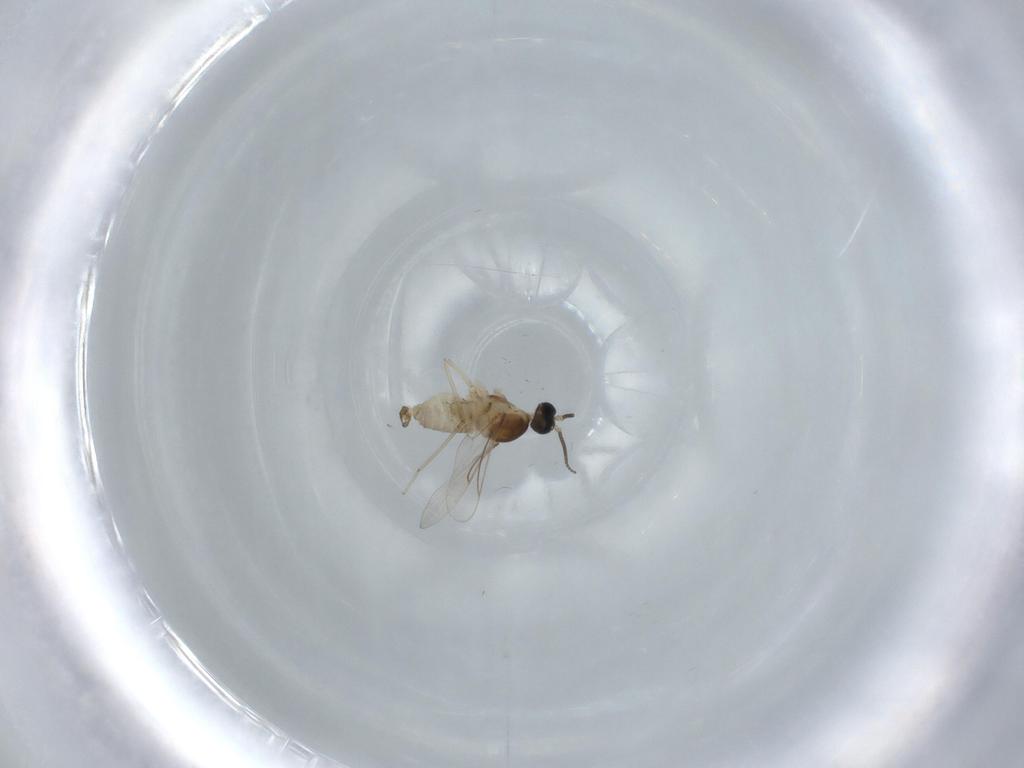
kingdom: Animalia
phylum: Arthropoda
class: Insecta
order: Diptera
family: Cecidomyiidae
